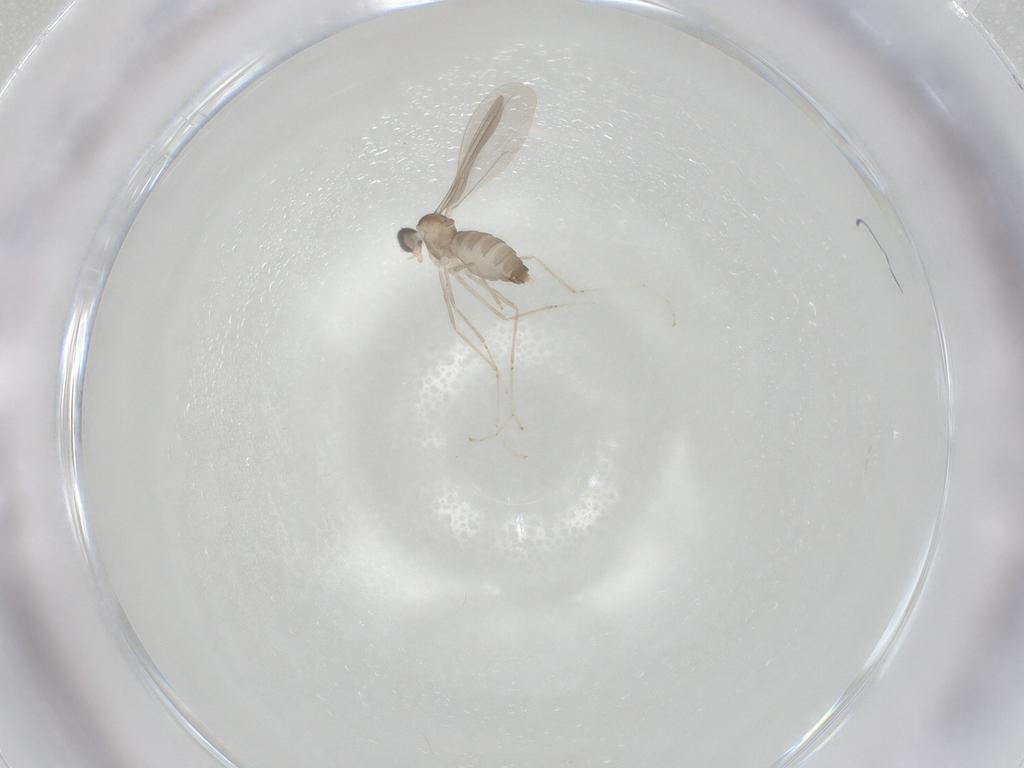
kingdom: Animalia
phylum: Arthropoda
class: Insecta
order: Diptera
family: Cecidomyiidae
